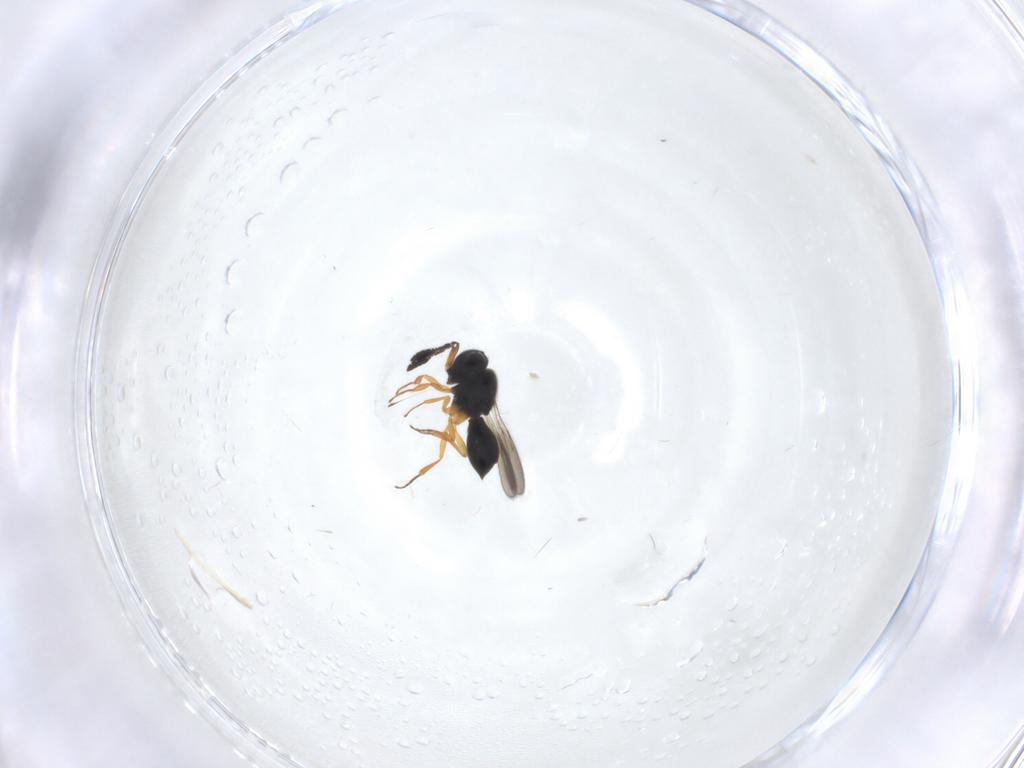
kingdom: Animalia
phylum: Arthropoda
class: Insecta
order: Hymenoptera
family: Scelionidae
